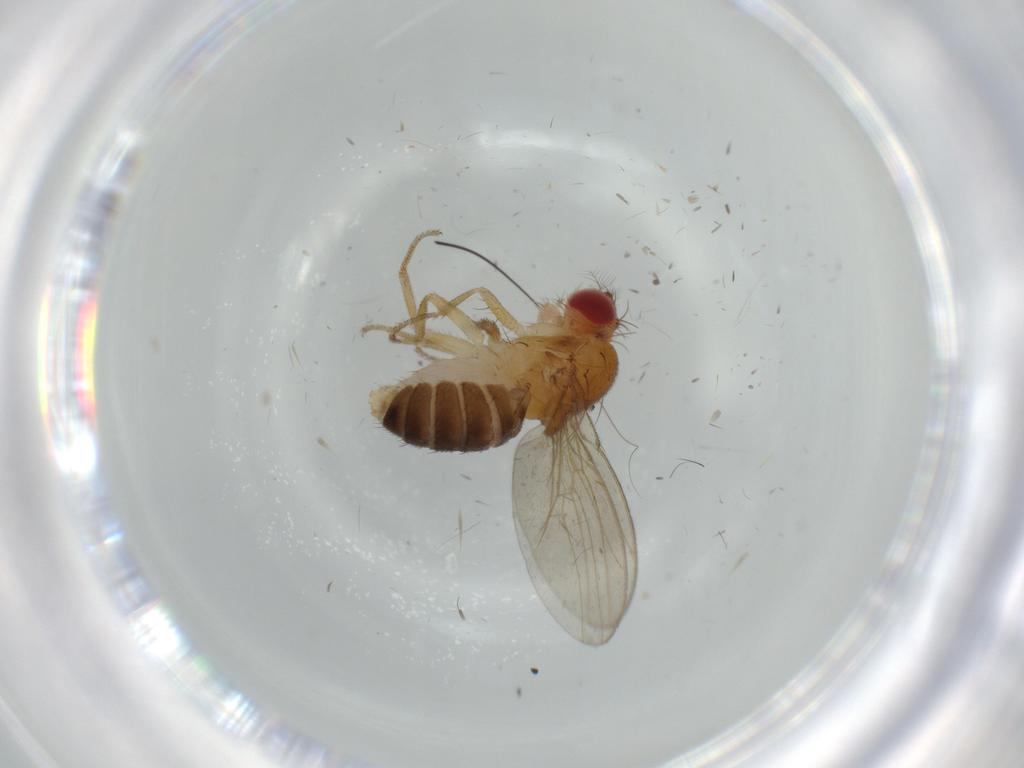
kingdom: Animalia
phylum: Arthropoda
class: Insecta
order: Diptera
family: Drosophilidae
